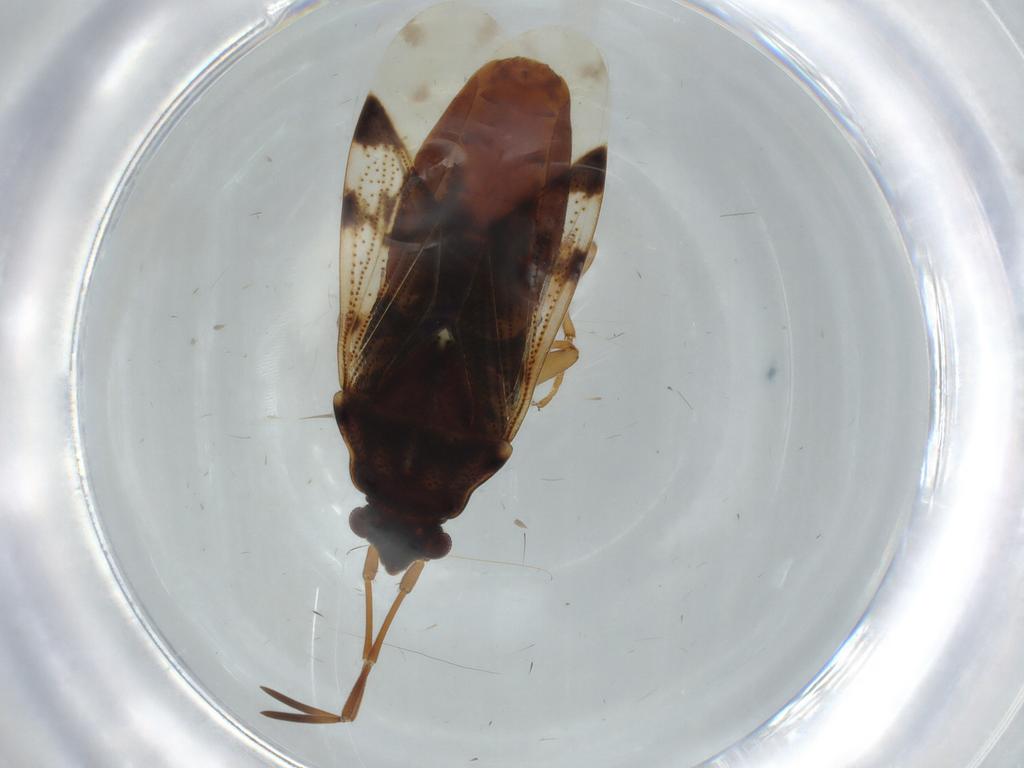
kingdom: Animalia
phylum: Arthropoda
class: Insecta
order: Hemiptera
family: Rhyparochromidae
